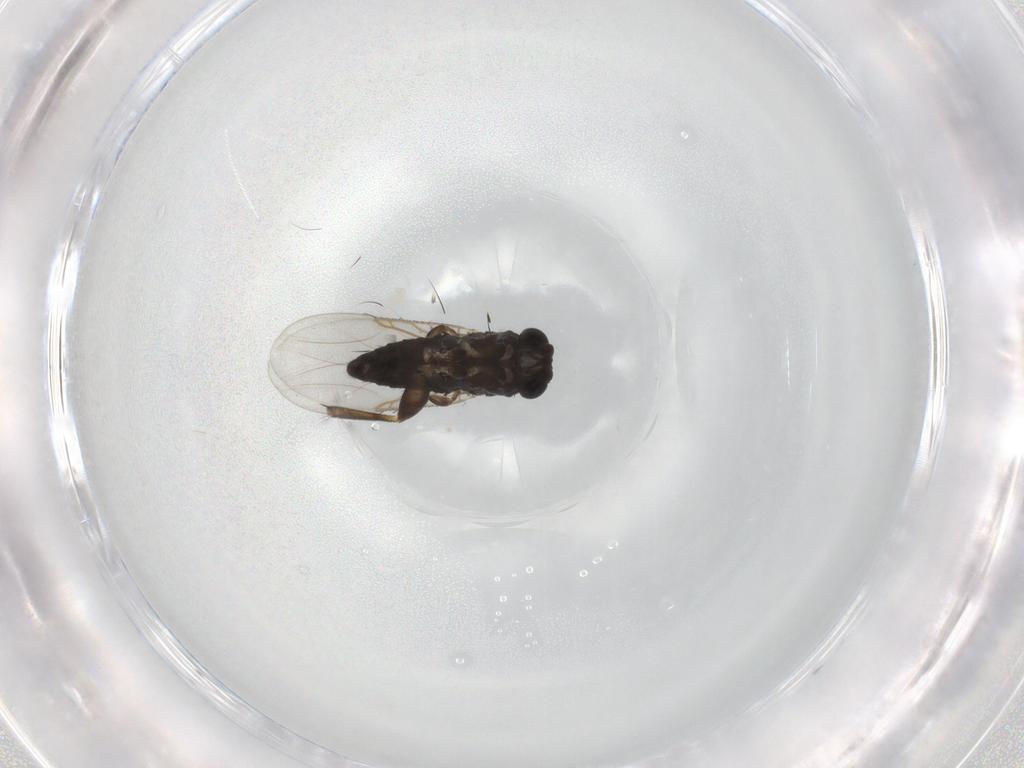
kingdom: Animalia
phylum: Arthropoda
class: Insecta
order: Diptera
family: Phoridae
